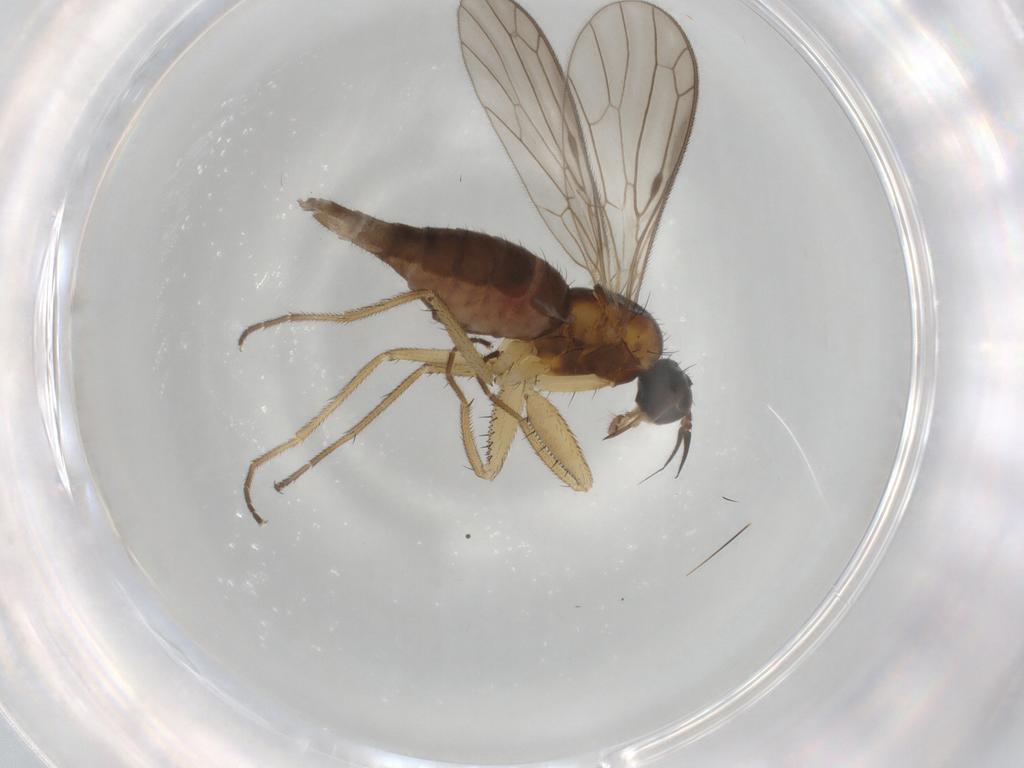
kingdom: Animalia
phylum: Arthropoda
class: Insecta
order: Diptera
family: Empididae
